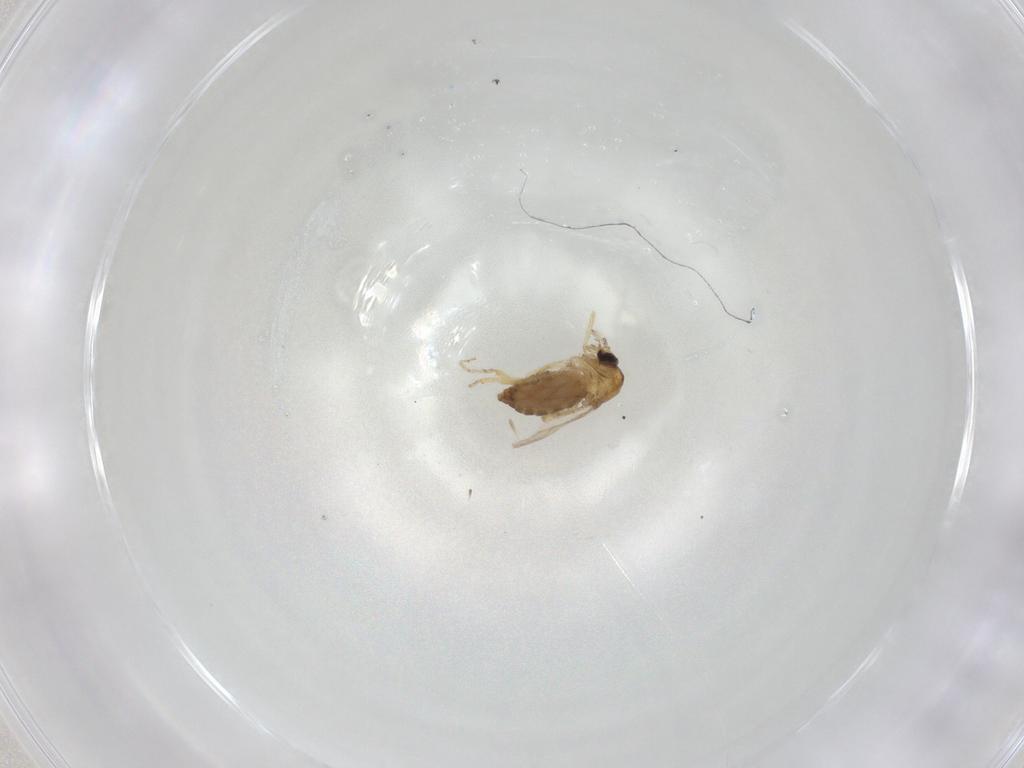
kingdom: Animalia
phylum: Arthropoda
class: Insecta
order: Diptera
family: Ceratopogonidae
